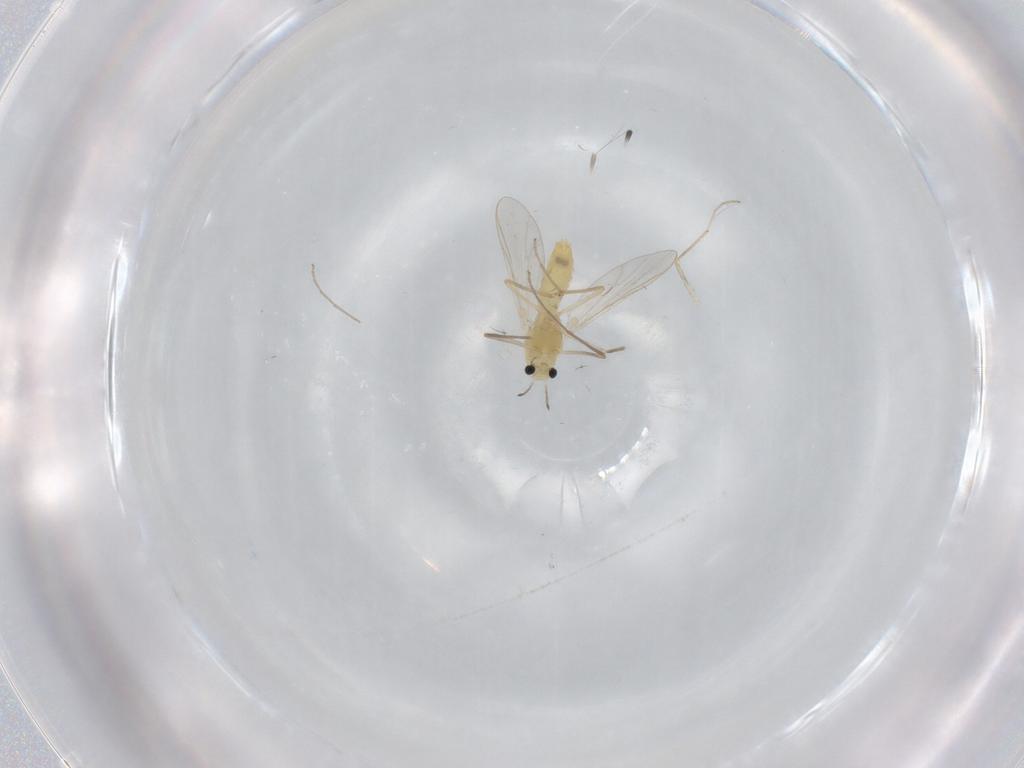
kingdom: Animalia
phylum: Arthropoda
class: Insecta
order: Diptera
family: Chironomidae
